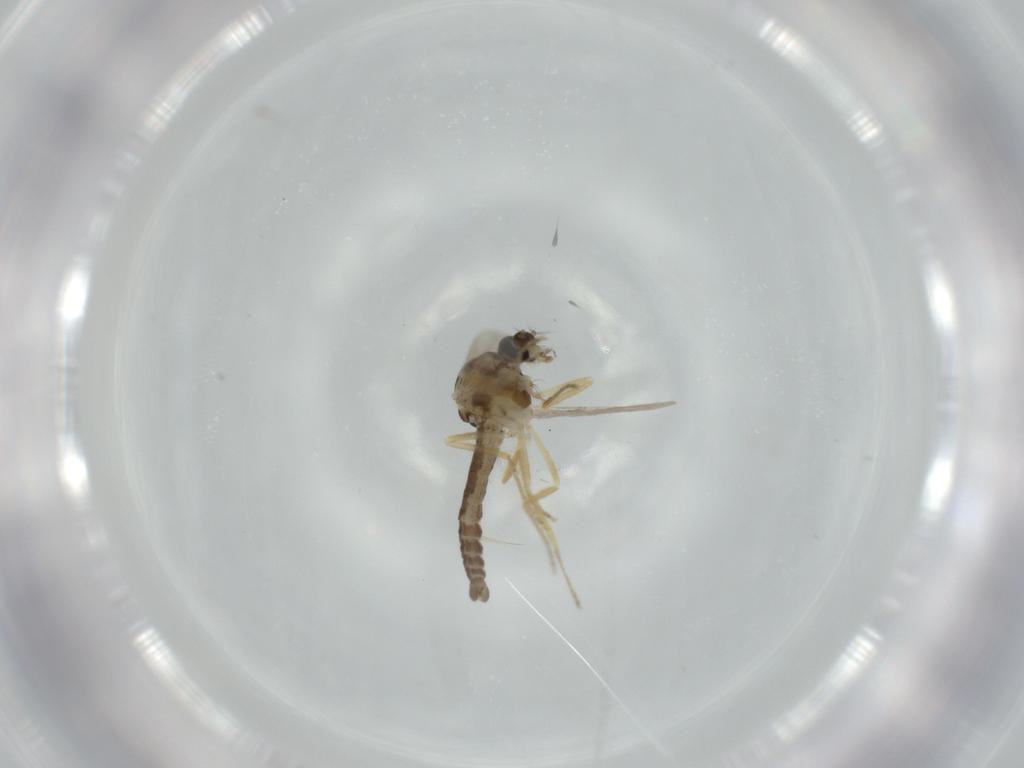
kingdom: Animalia
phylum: Arthropoda
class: Insecta
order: Diptera
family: Ceratopogonidae
